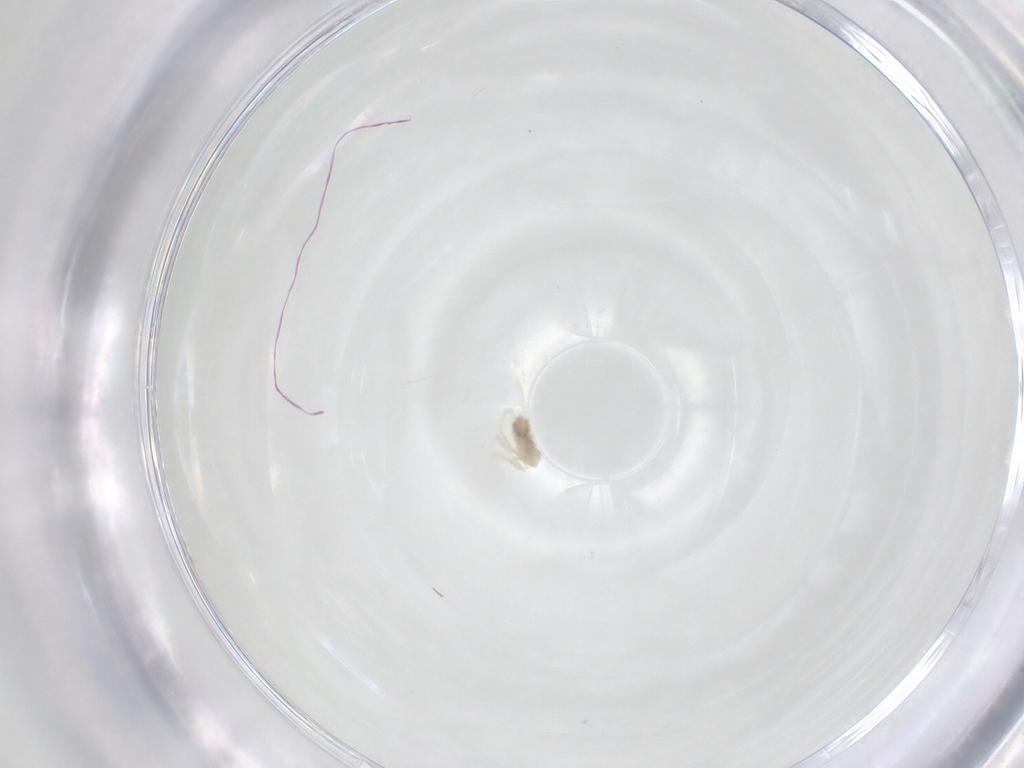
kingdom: Animalia
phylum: Arthropoda
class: Insecta
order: Diptera
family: Chironomidae
